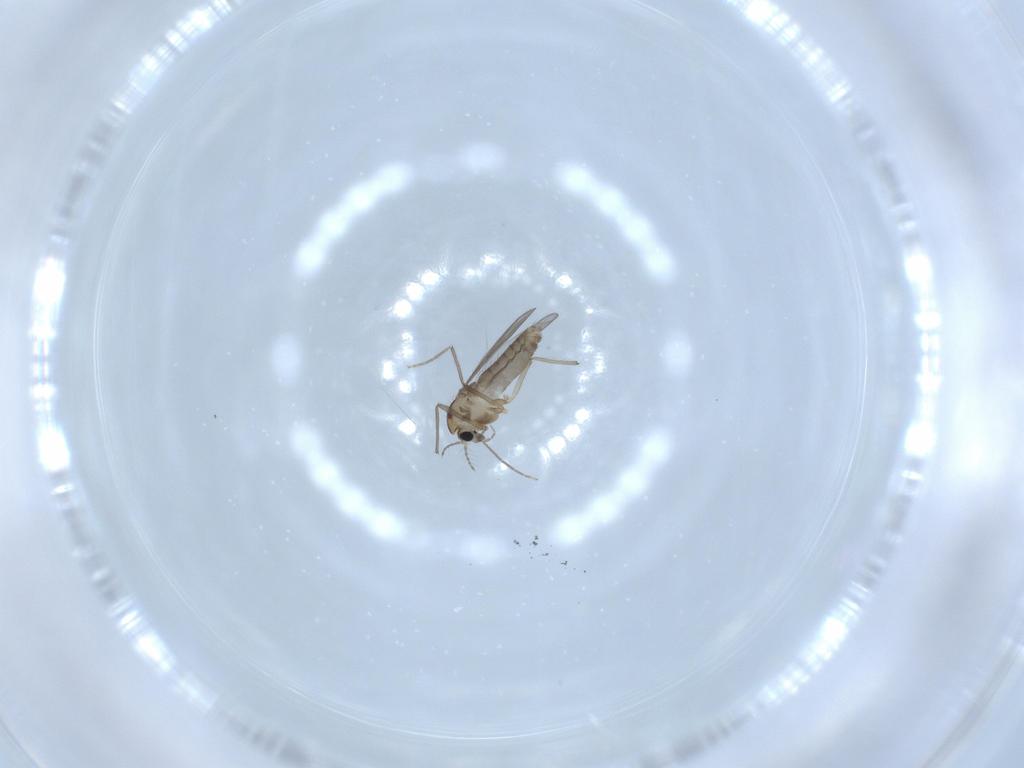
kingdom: Animalia
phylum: Arthropoda
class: Insecta
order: Diptera
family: Chironomidae
